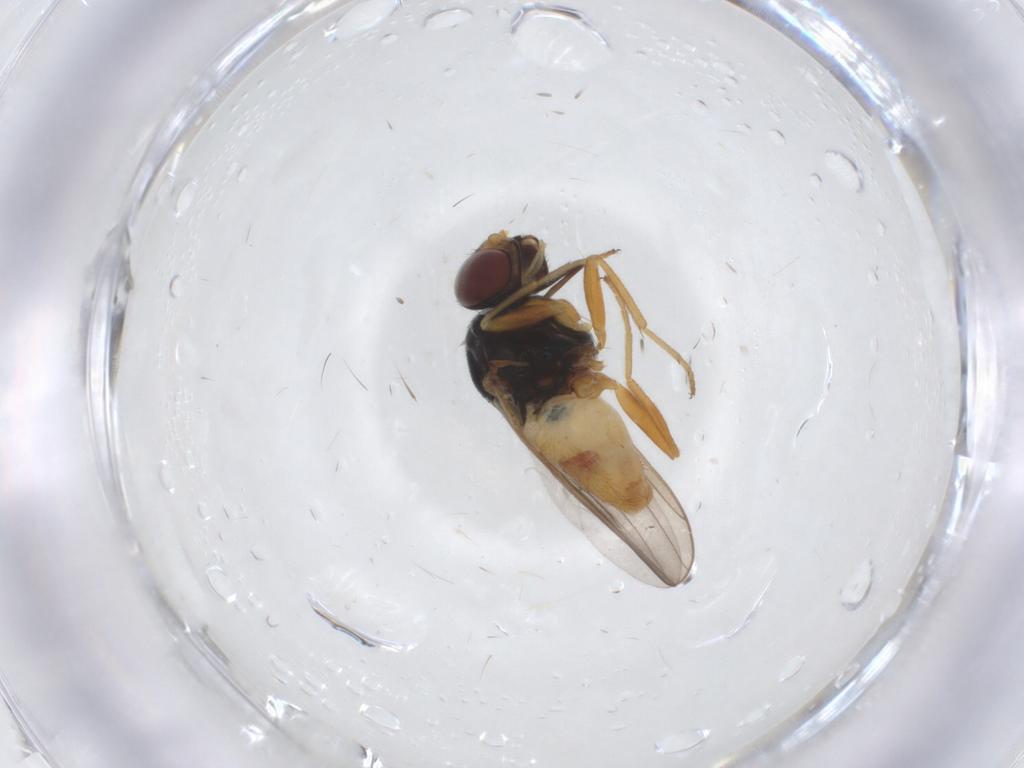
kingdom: Animalia
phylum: Arthropoda
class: Insecta
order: Diptera
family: Chloropidae
